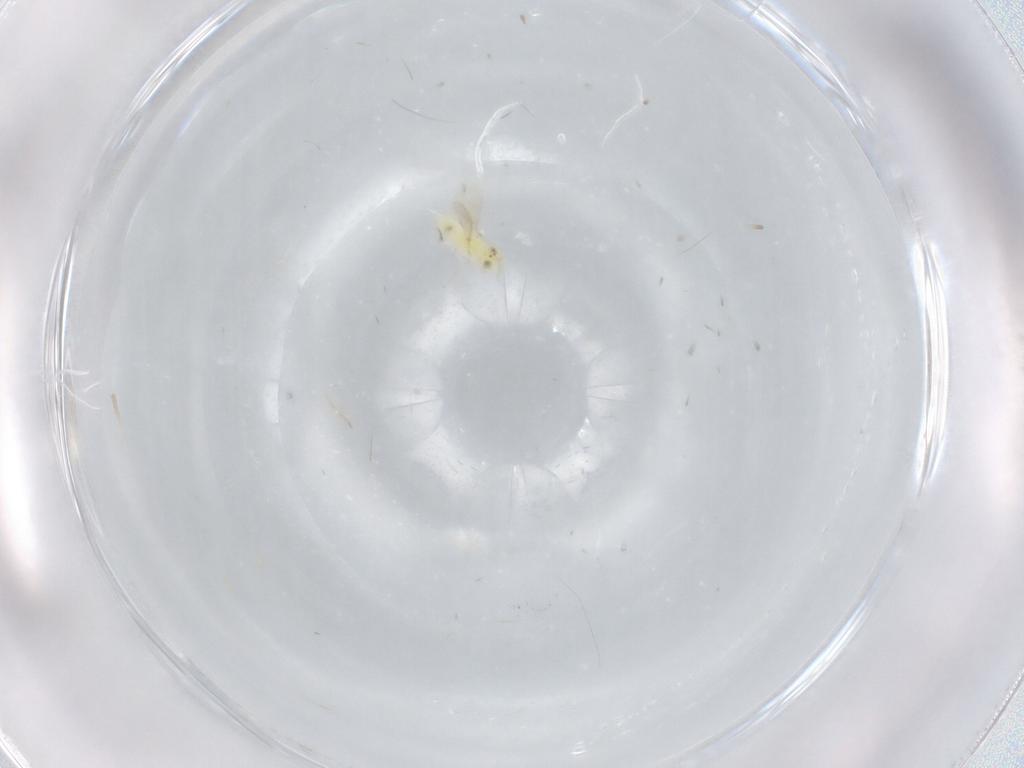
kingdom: Animalia
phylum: Arthropoda
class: Insecta
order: Hymenoptera
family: Aphelinidae
